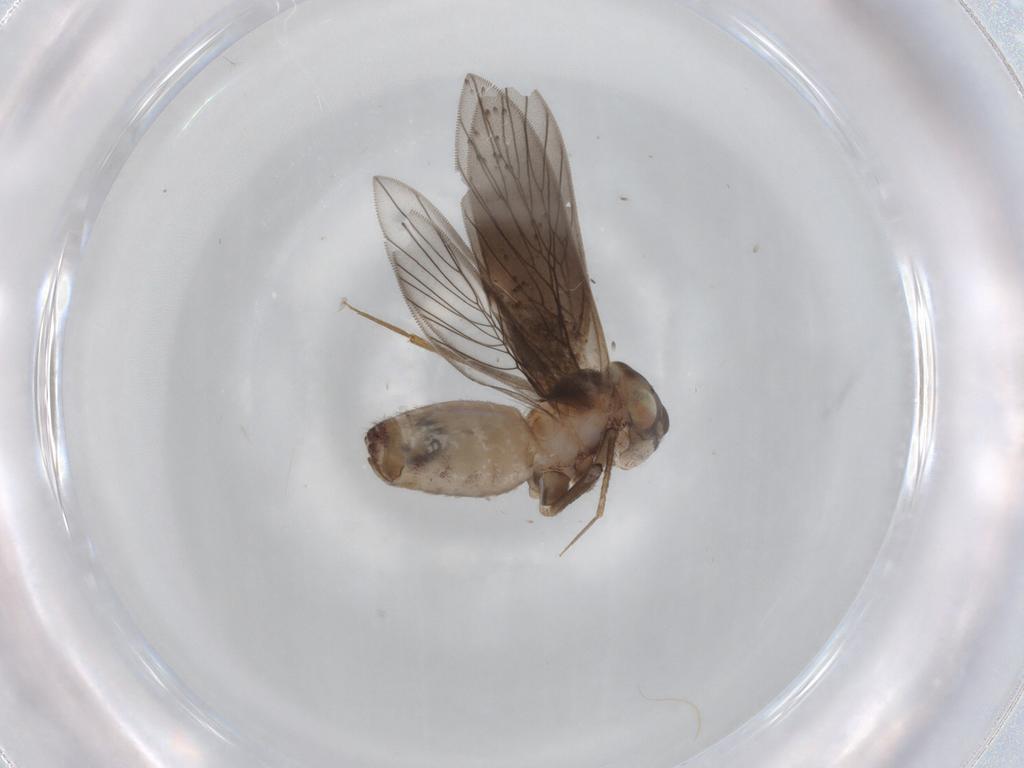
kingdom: Animalia
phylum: Arthropoda
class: Insecta
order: Psocodea
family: Lepidopsocidae
